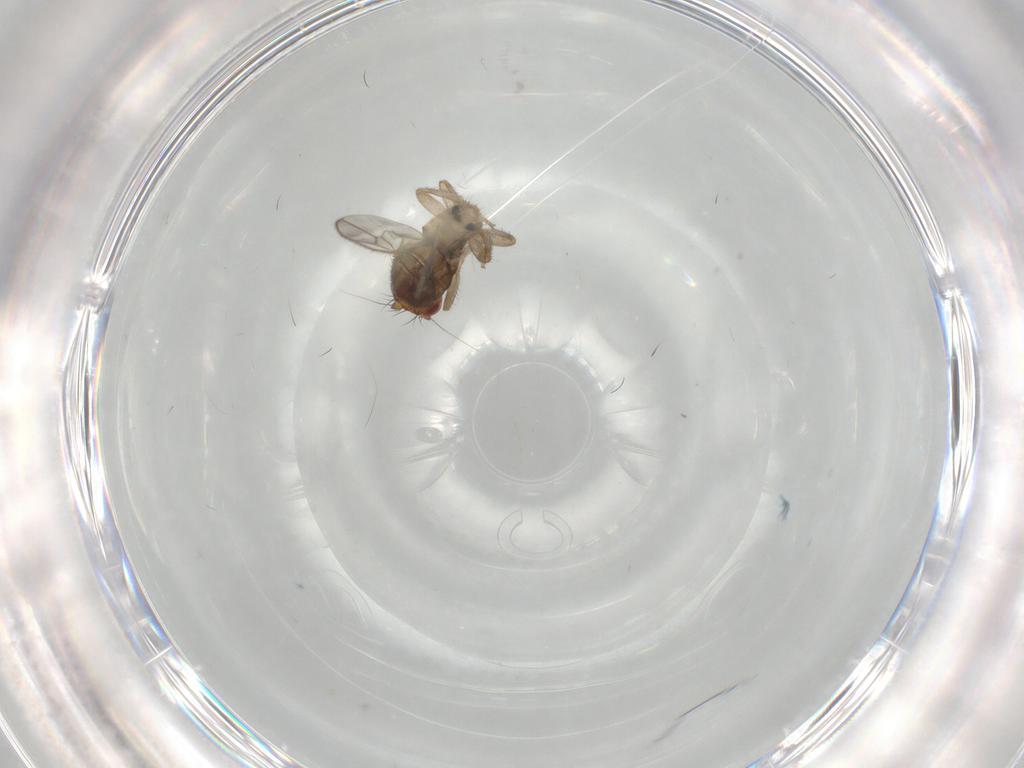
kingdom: Animalia
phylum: Arthropoda
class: Insecta
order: Diptera
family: Sphaeroceridae
